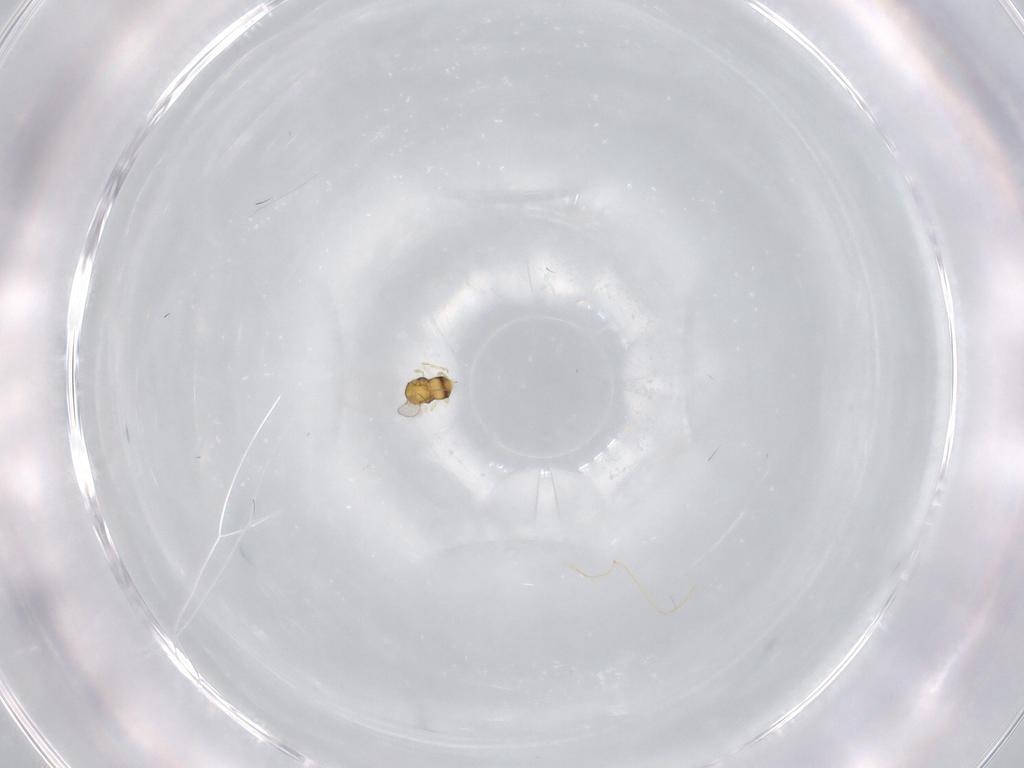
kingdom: Animalia
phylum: Arthropoda
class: Insecta
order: Hymenoptera
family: Aphelinidae
